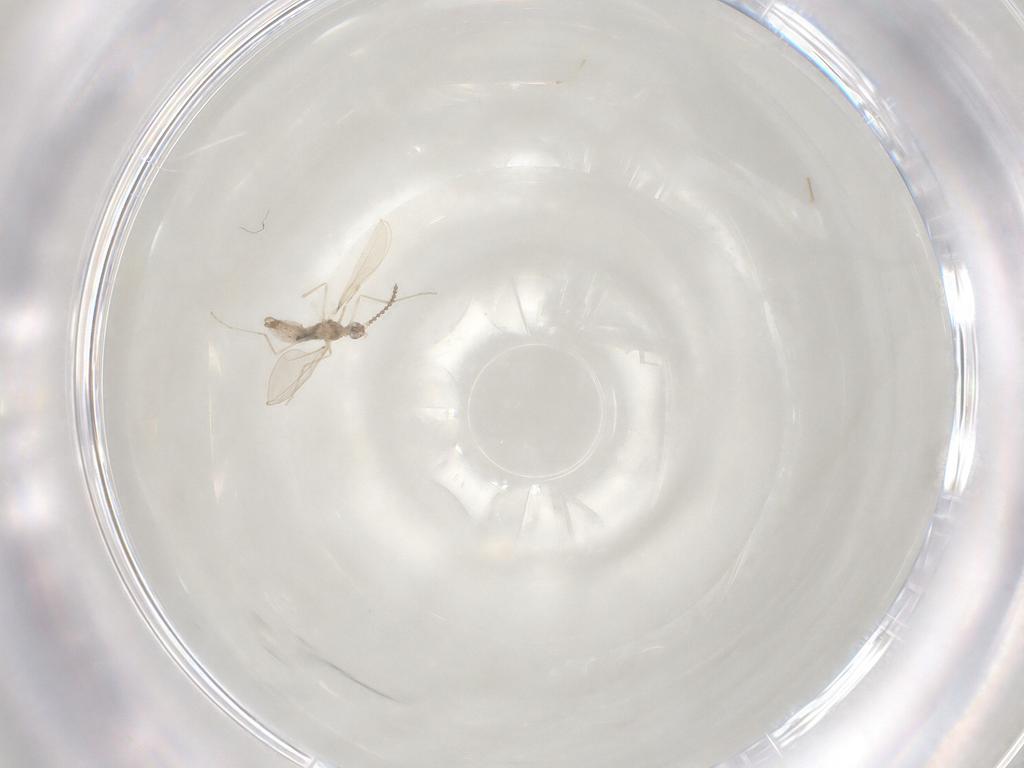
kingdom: Animalia
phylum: Arthropoda
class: Insecta
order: Diptera
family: Cecidomyiidae
